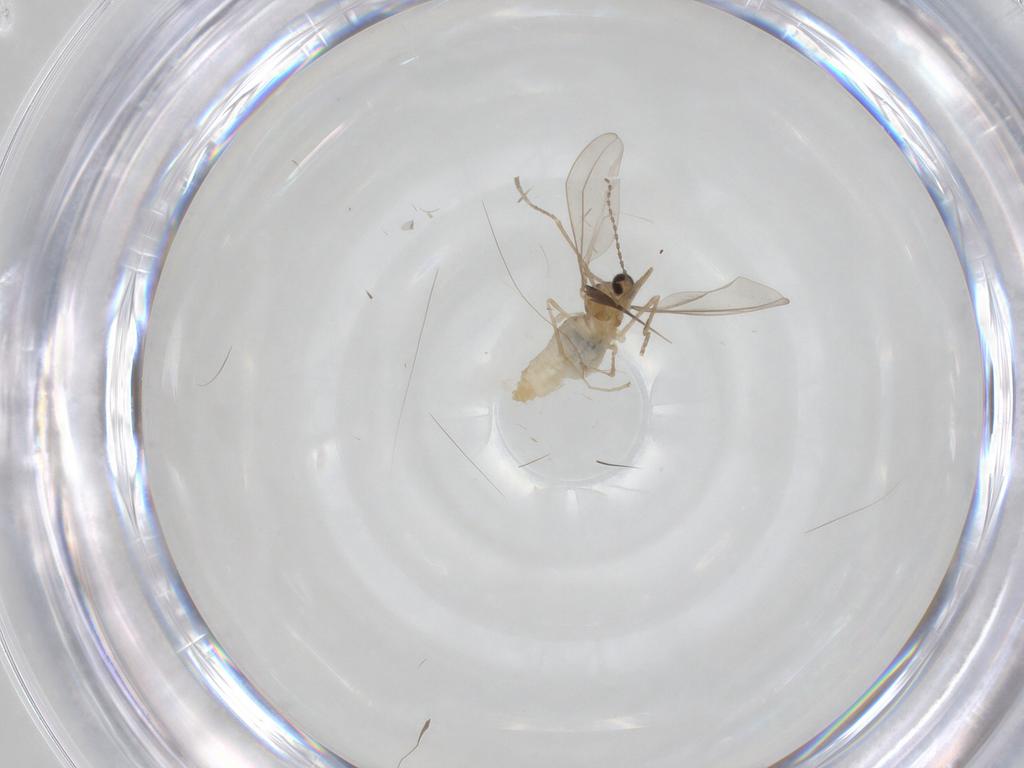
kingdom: Animalia
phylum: Arthropoda
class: Insecta
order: Diptera
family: Cecidomyiidae
